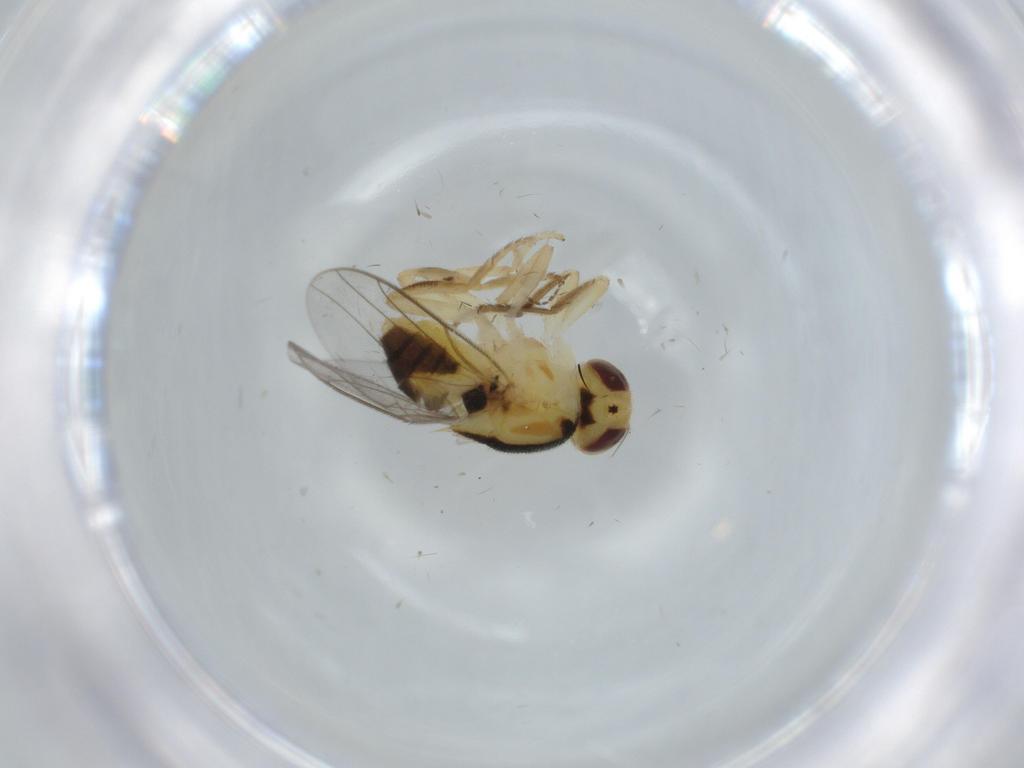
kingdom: Animalia
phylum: Arthropoda
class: Insecta
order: Diptera
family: Chloropidae
